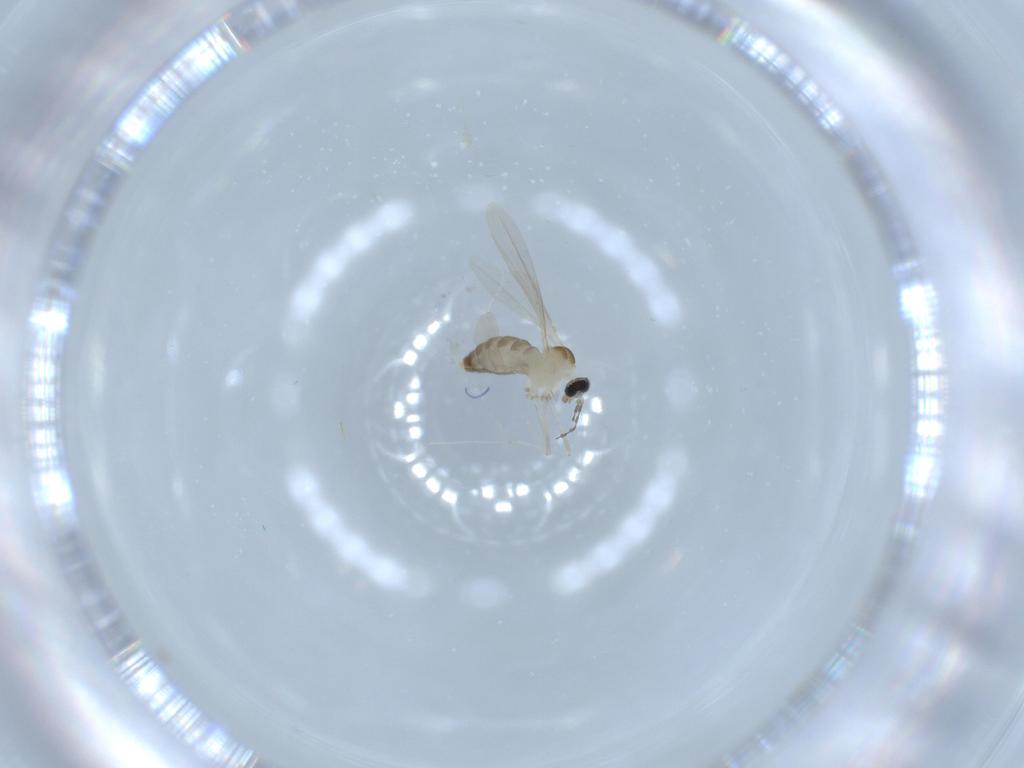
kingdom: Animalia
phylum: Arthropoda
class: Insecta
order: Diptera
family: Cecidomyiidae
